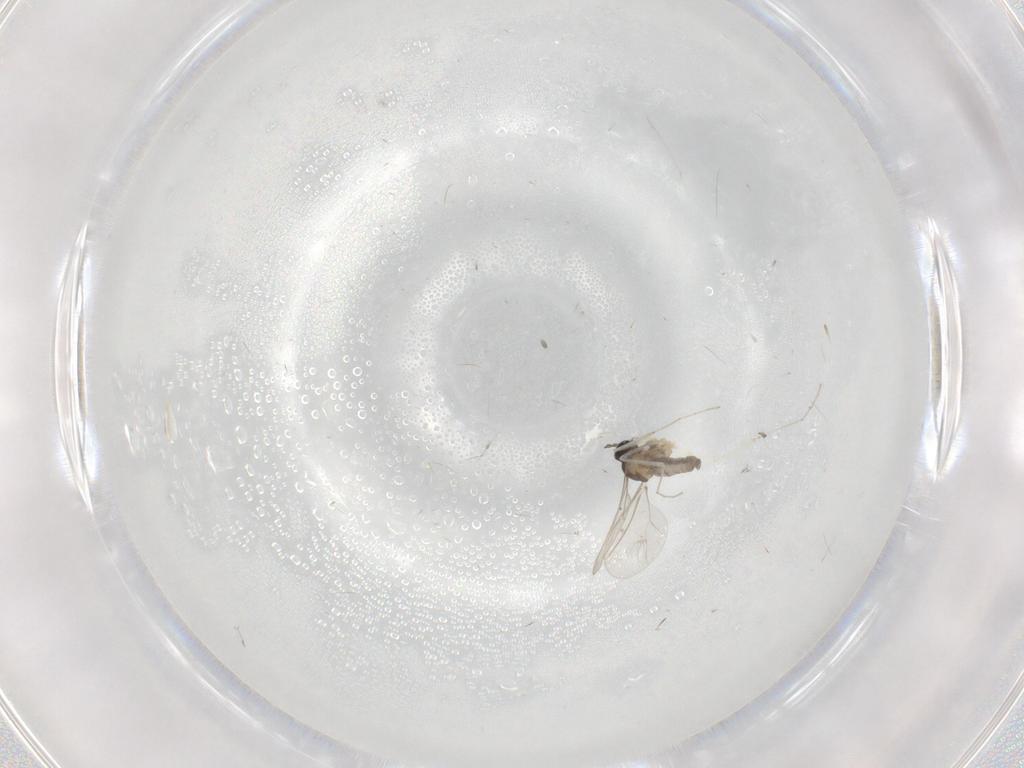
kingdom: Animalia
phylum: Arthropoda
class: Insecta
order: Diptera
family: Cecidomyiidae
